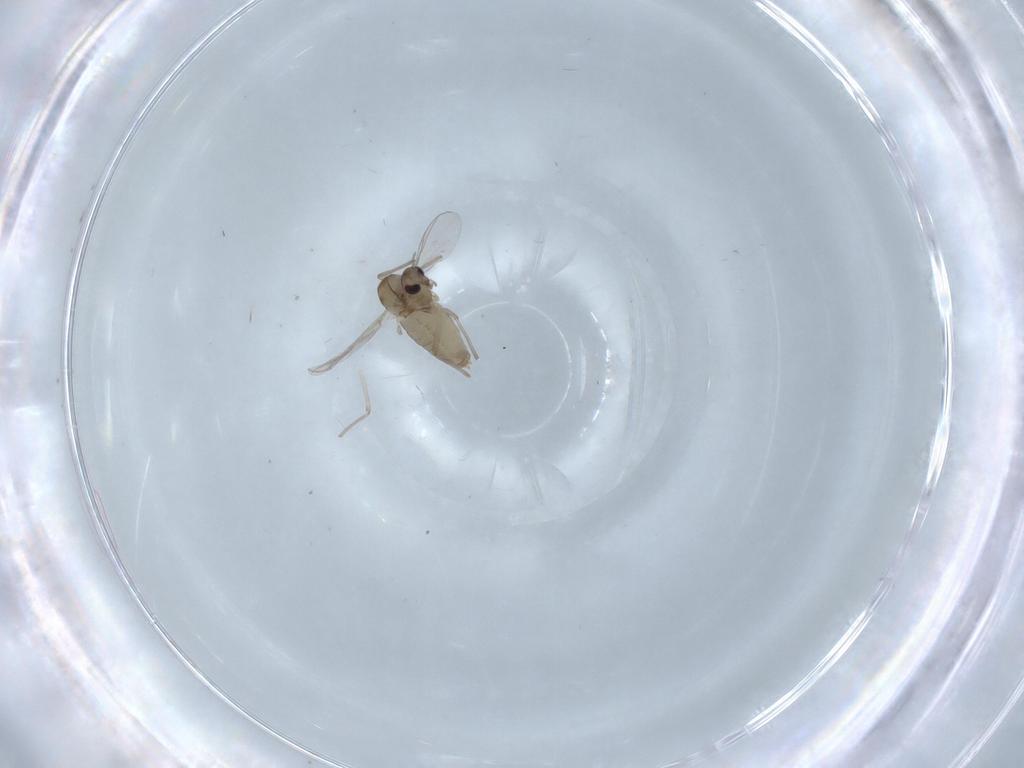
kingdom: Animalia
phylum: Arthropoda
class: Insecta
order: Diptera
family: Chironomidae
